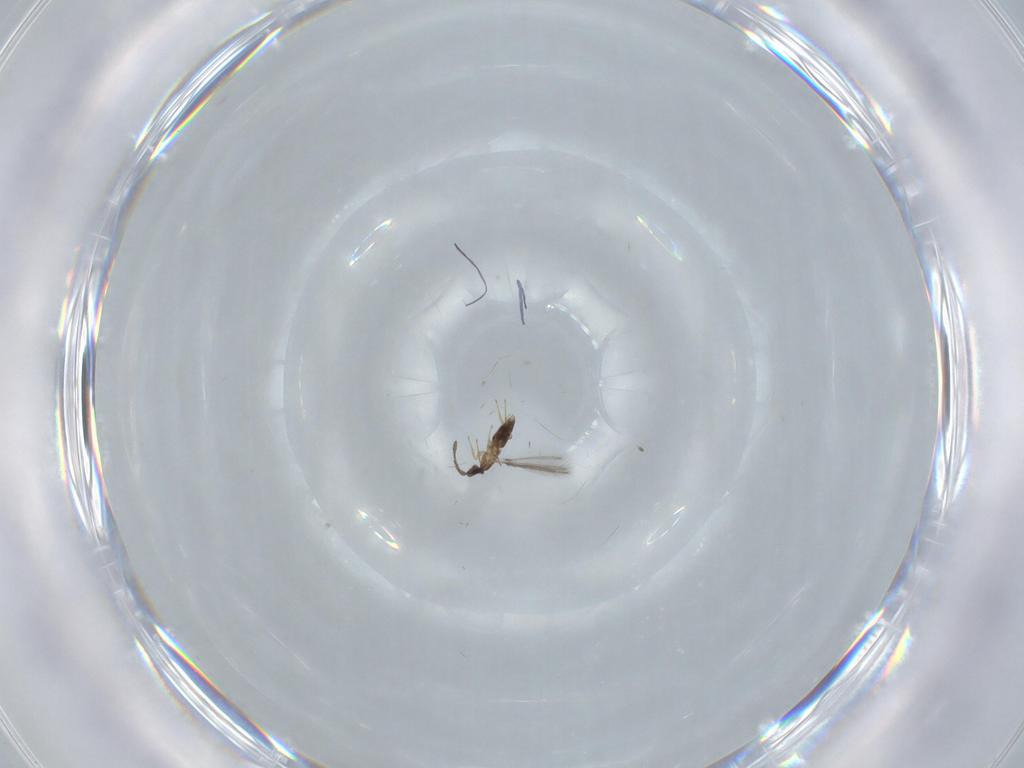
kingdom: Animalia
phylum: Arthropoda
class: Insecta
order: Hymenoptera
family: Mymaridae
